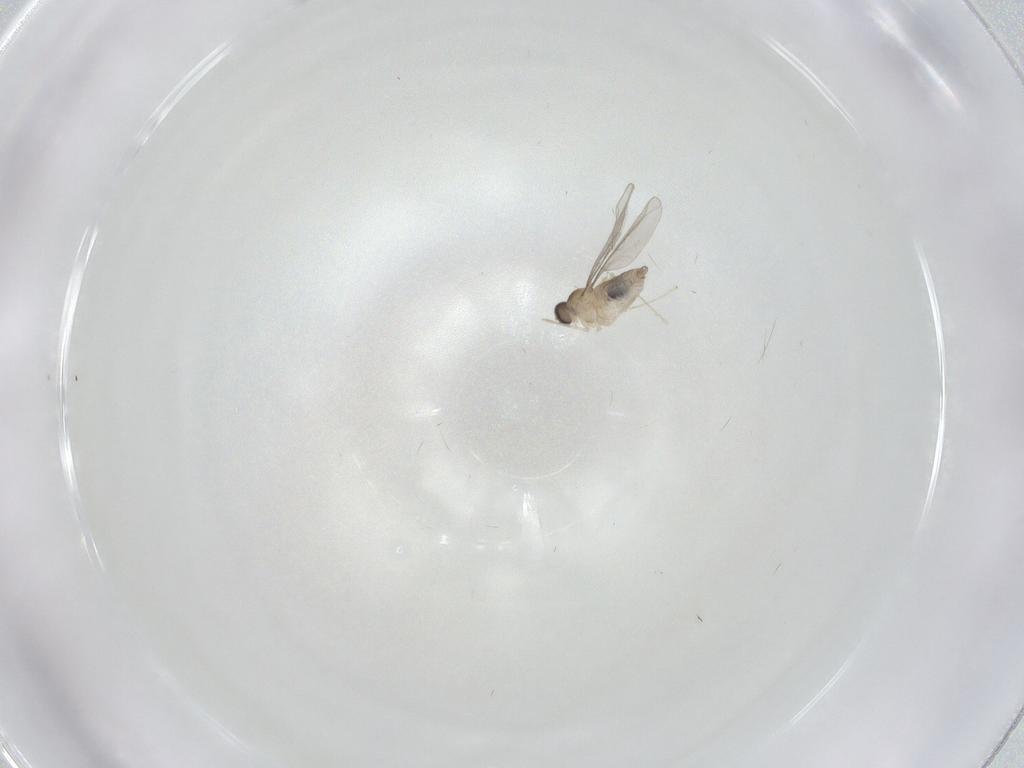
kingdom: Animalia
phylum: Arthropoda
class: Insecta
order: Diptera
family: Cecidomyiidae
